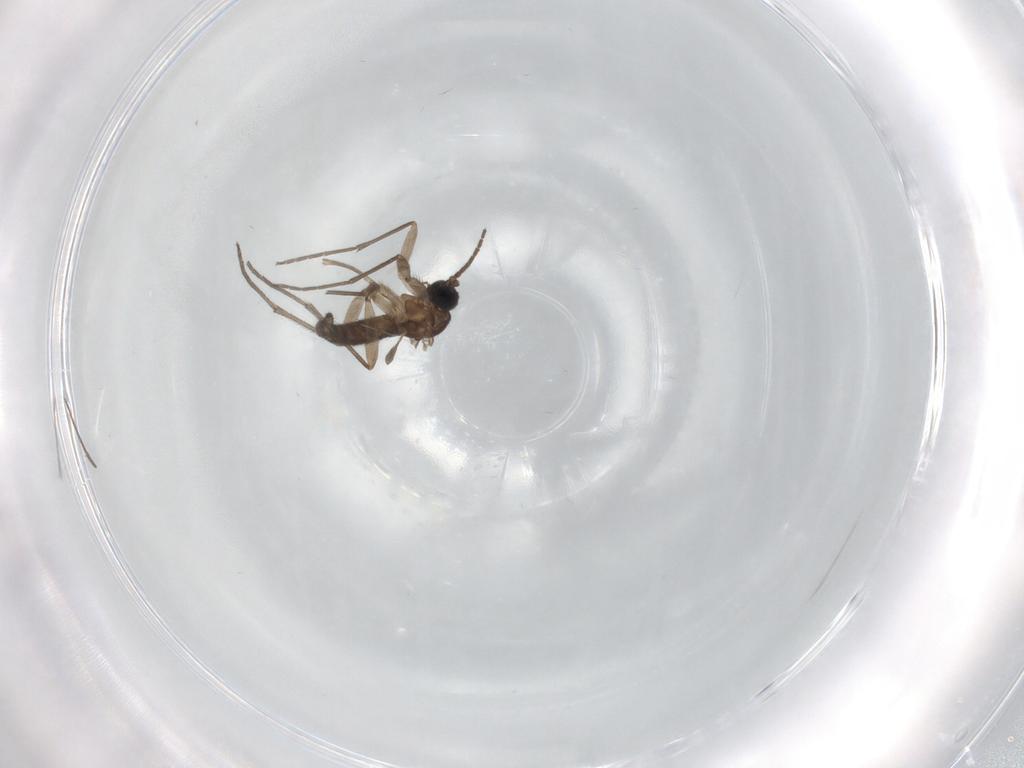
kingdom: Animalia
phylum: Arthropoda
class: Insecta
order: Diptera
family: Sciaridae
